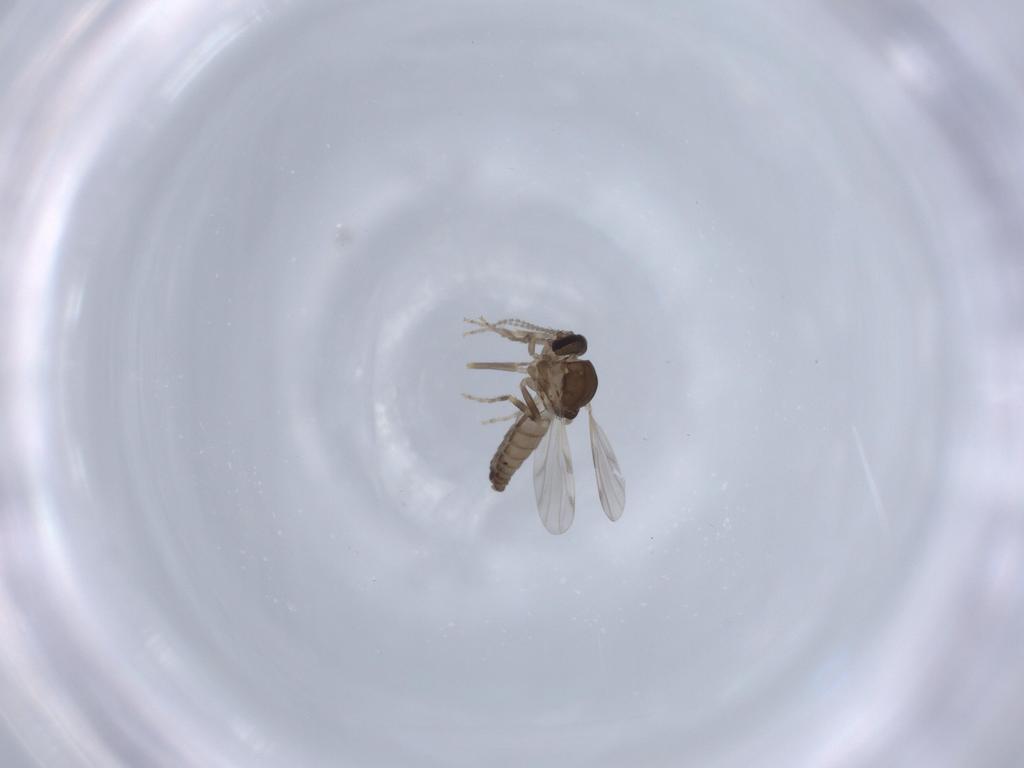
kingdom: Animalia
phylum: Arthropoda
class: Insecta
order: Diptera
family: Ceratopogonidae
